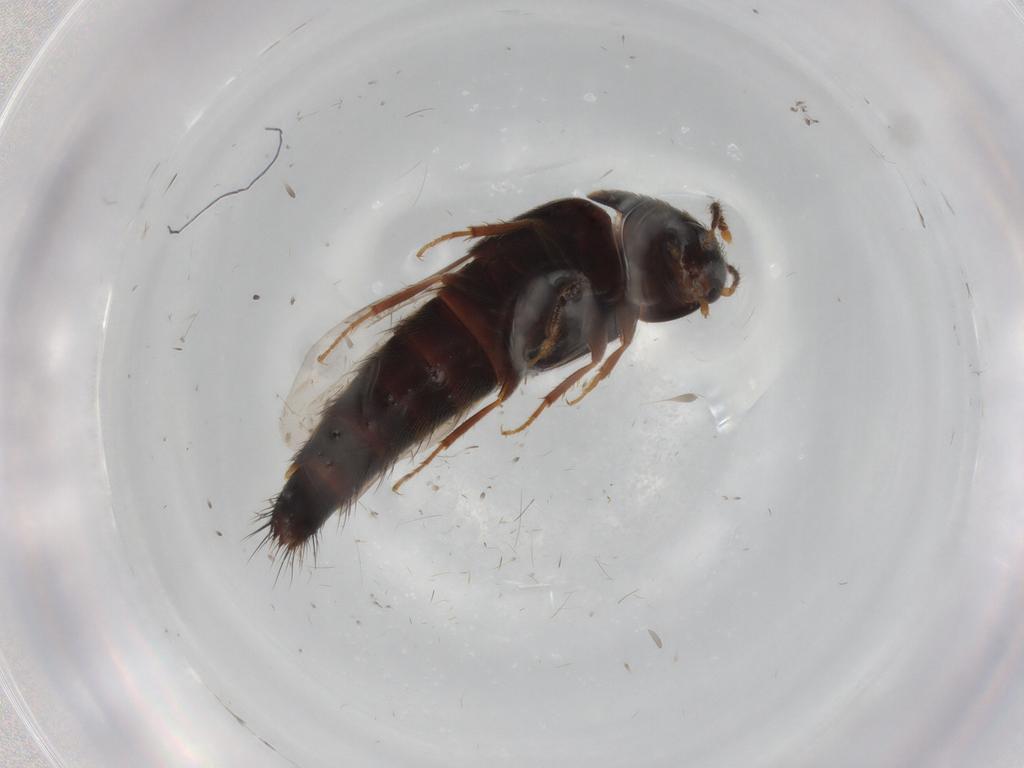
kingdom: Animalia
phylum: Arthropoda
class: Insecta
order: Coleoptera
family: Staphylinidae
